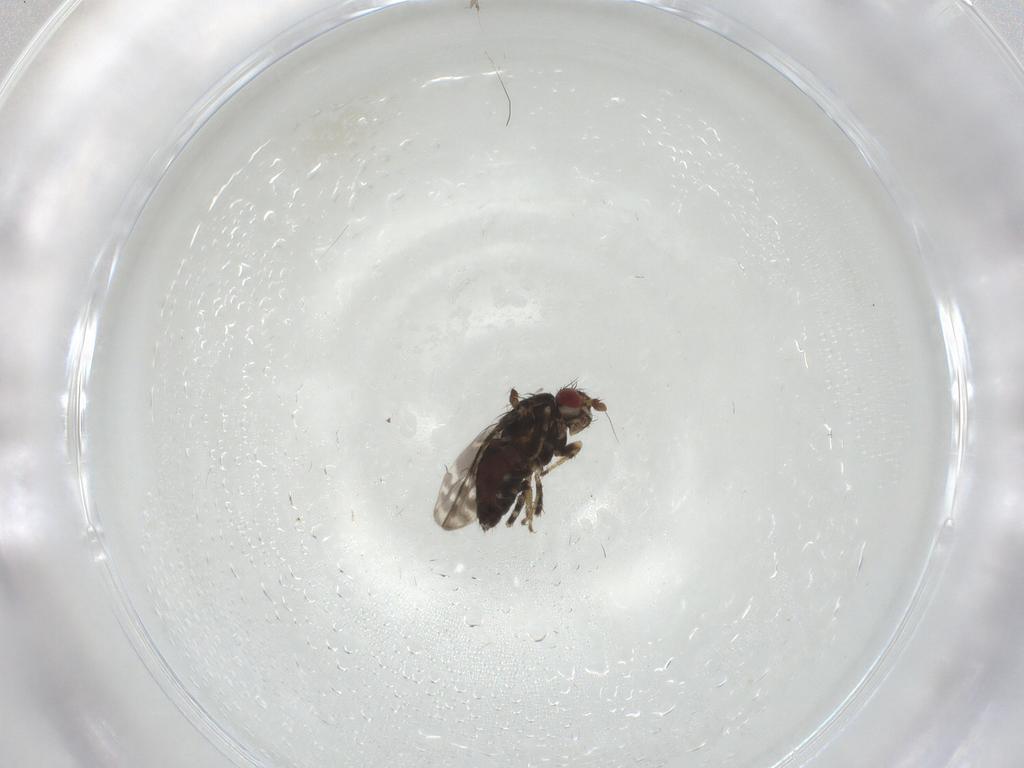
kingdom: Animalia
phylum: Arthropoda
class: Insecta
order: Diptera
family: Sphaeroceridae
